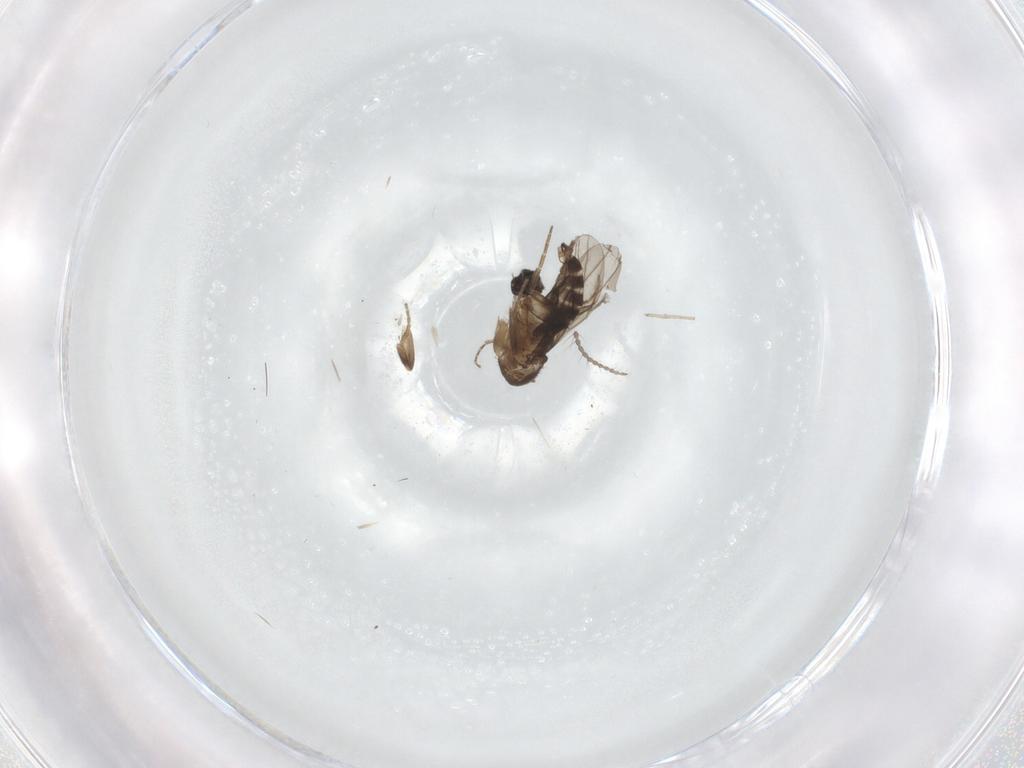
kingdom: Animalia
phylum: Arthropoda
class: Insecta
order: Diptera
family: Limoniidae
